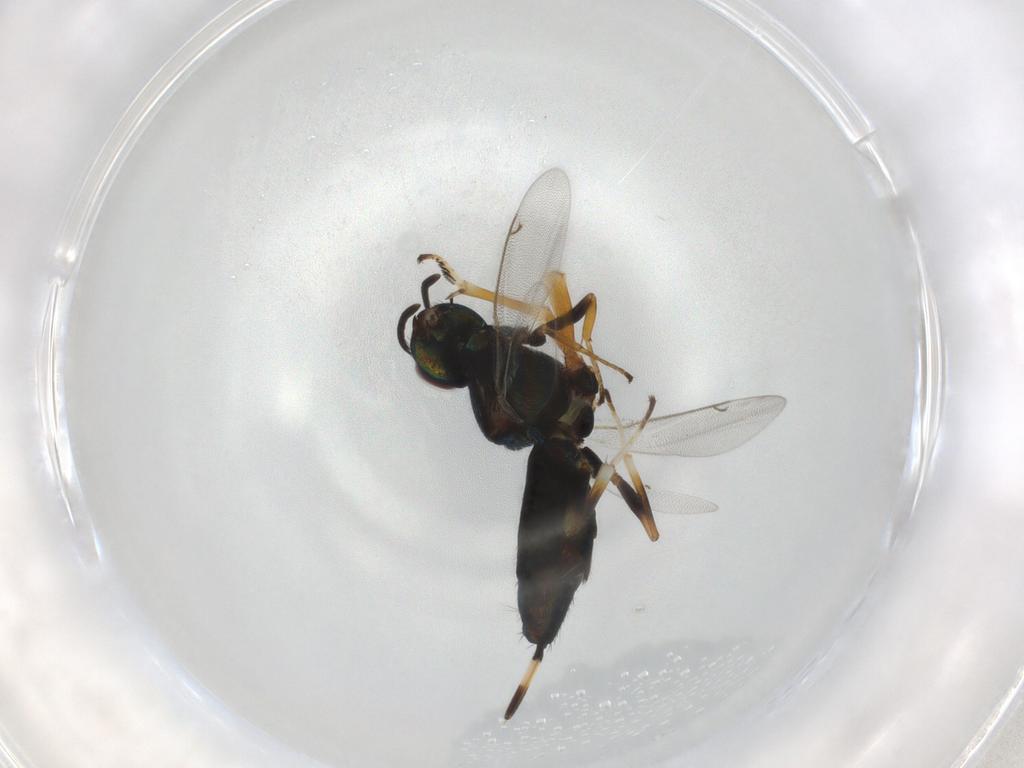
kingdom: Animalia
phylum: Arthropoda
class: Insecta
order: Hymenoptera
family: Eupelmidae
